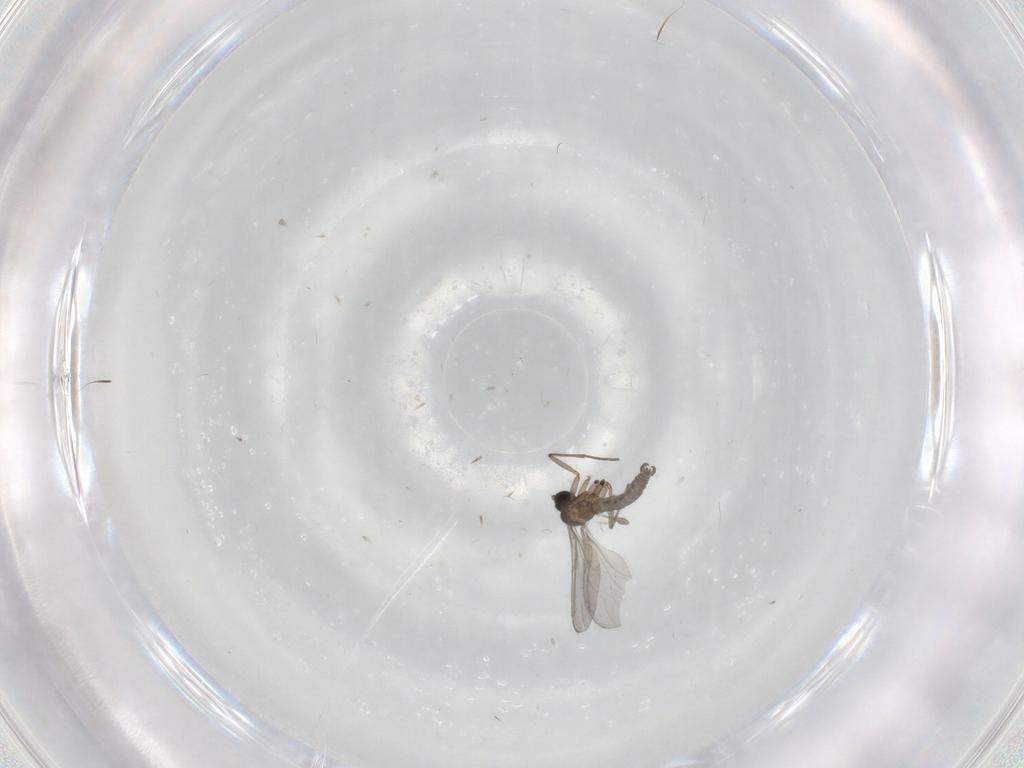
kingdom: Animalia
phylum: Arthropoda
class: Insecta
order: Diptera
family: Sciaridae
